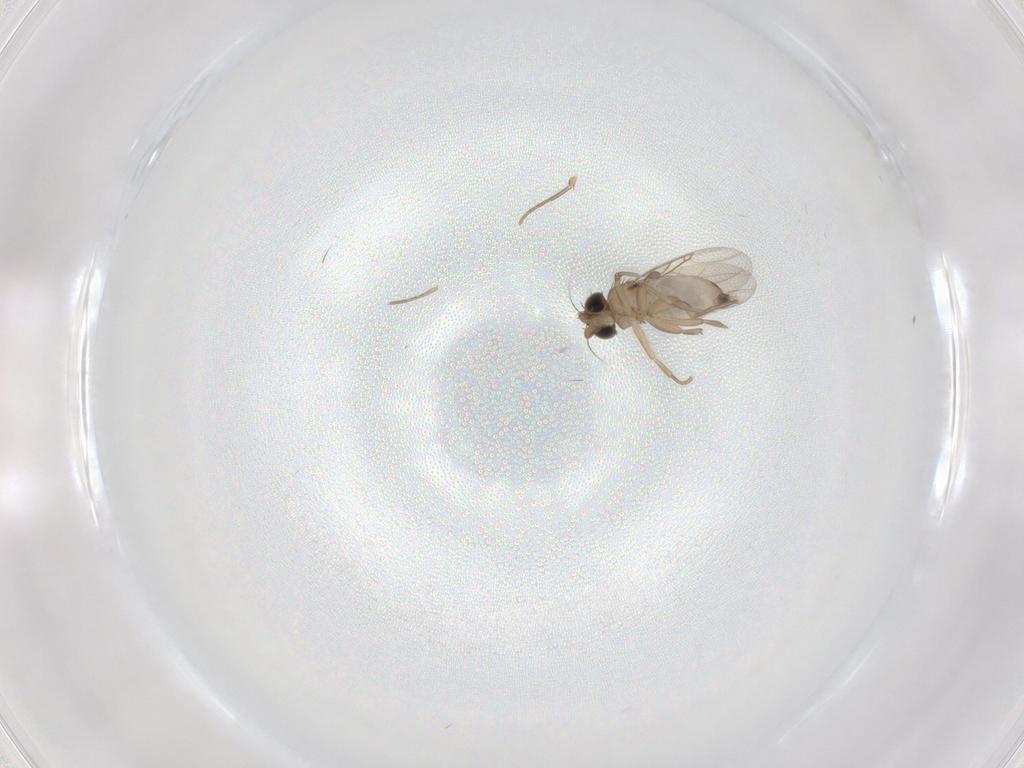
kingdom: Animalia
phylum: Arthropoda
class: Insecta
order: Diptera
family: Phoridae
